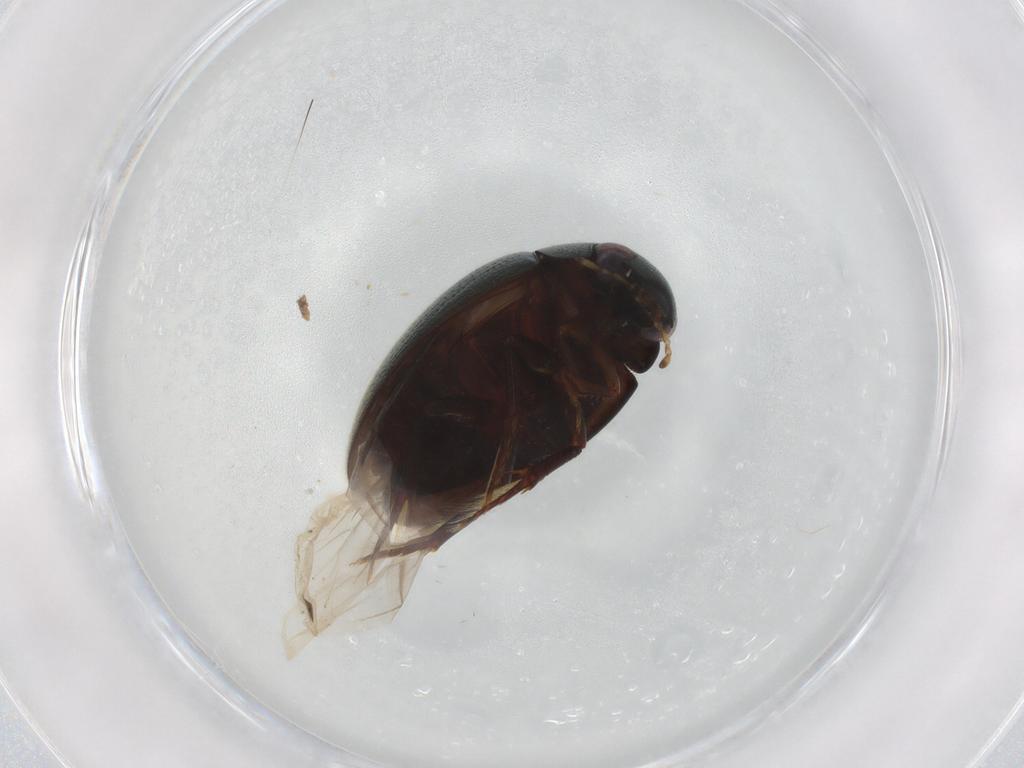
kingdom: Animalia
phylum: Arthropoda
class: Insecta
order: Coleoptera
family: Hydrophilidae
